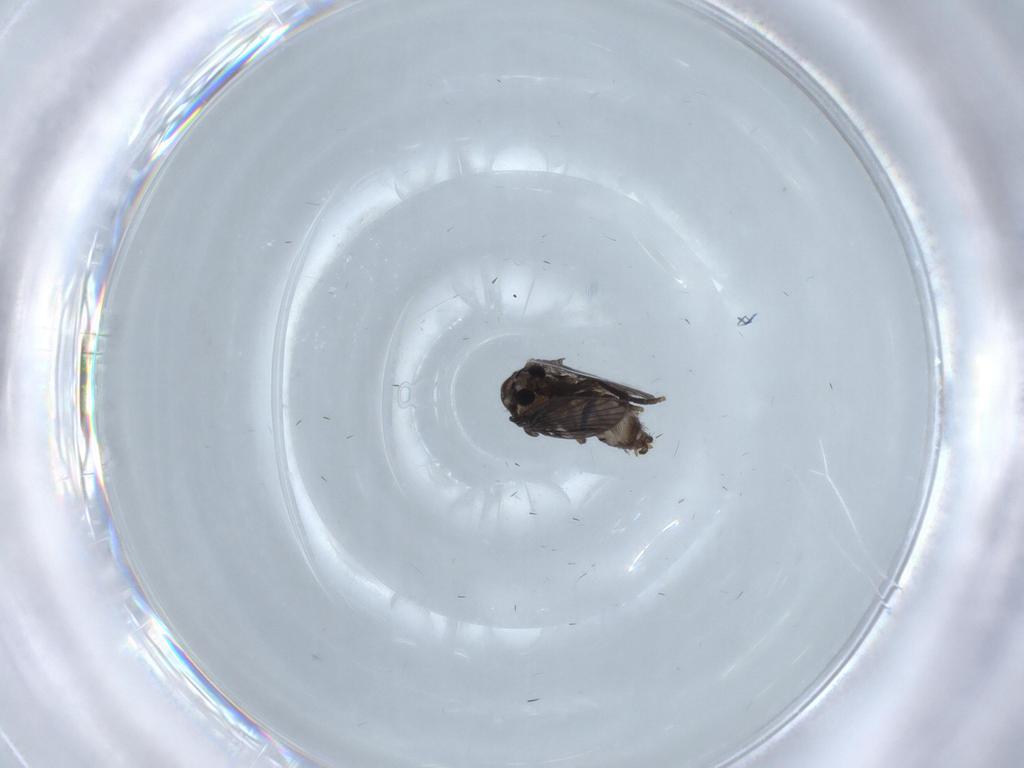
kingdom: Animalia
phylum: Arthropoda
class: Insecta
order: Diptera
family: Psychodidae
